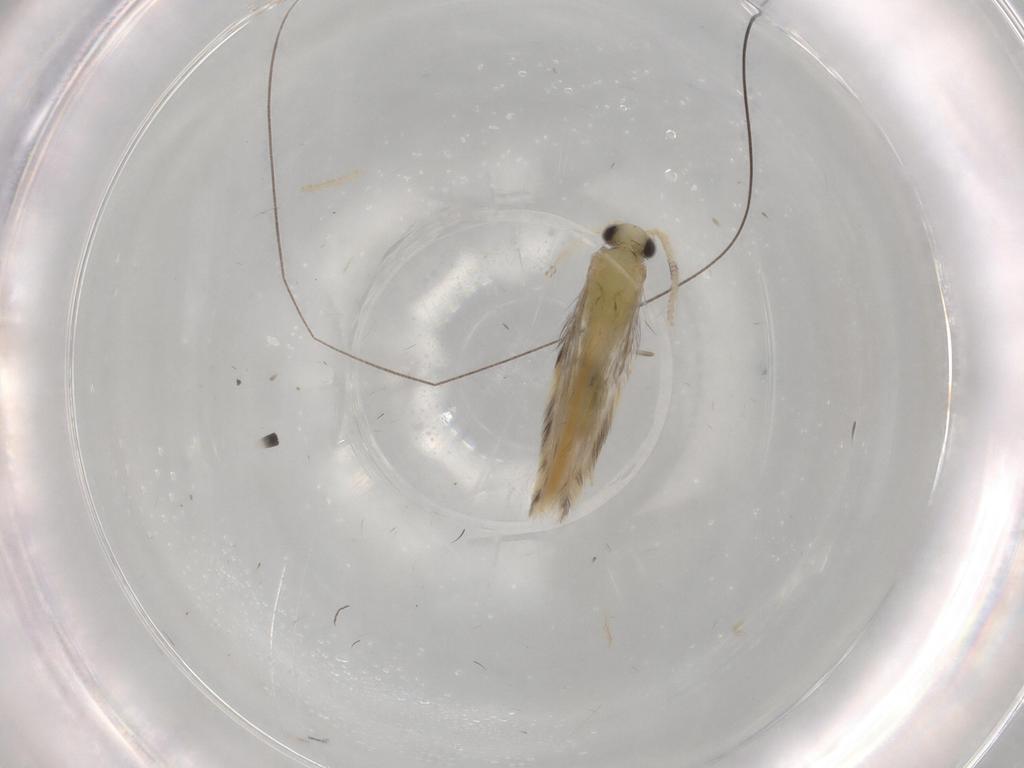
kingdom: Animalia
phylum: Arthropoda
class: Insecta
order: Trichoptera
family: Hydroptilidae
